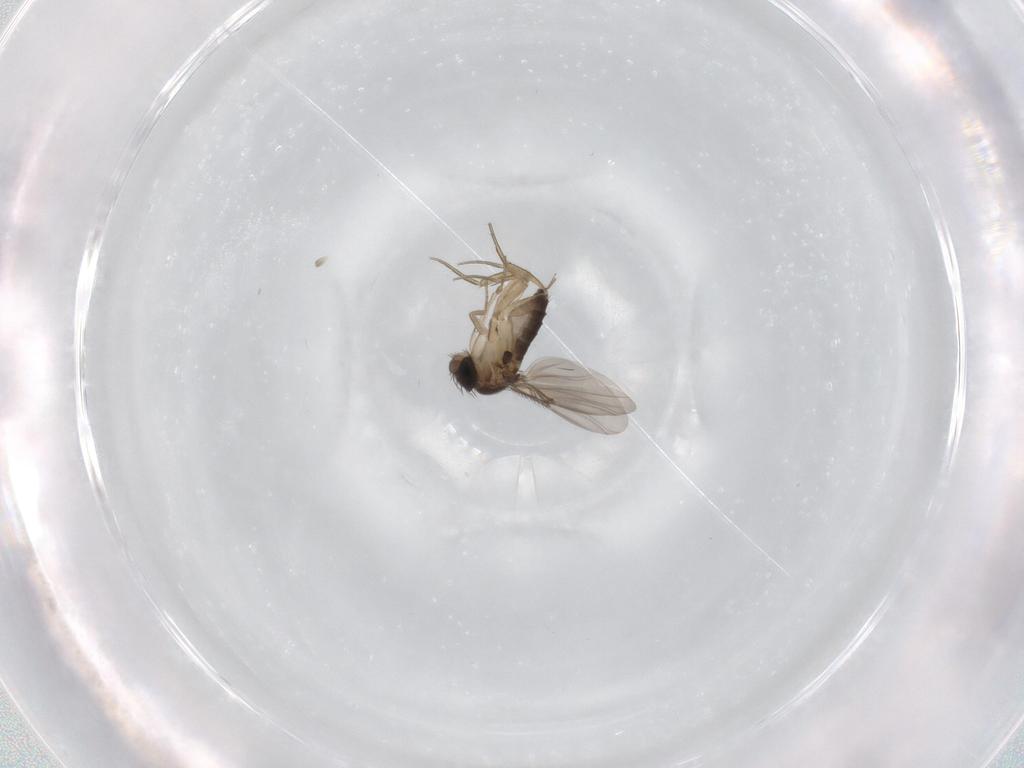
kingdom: Animalia
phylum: Arthropoda
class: Insecta
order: Diptera
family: Phoridae
